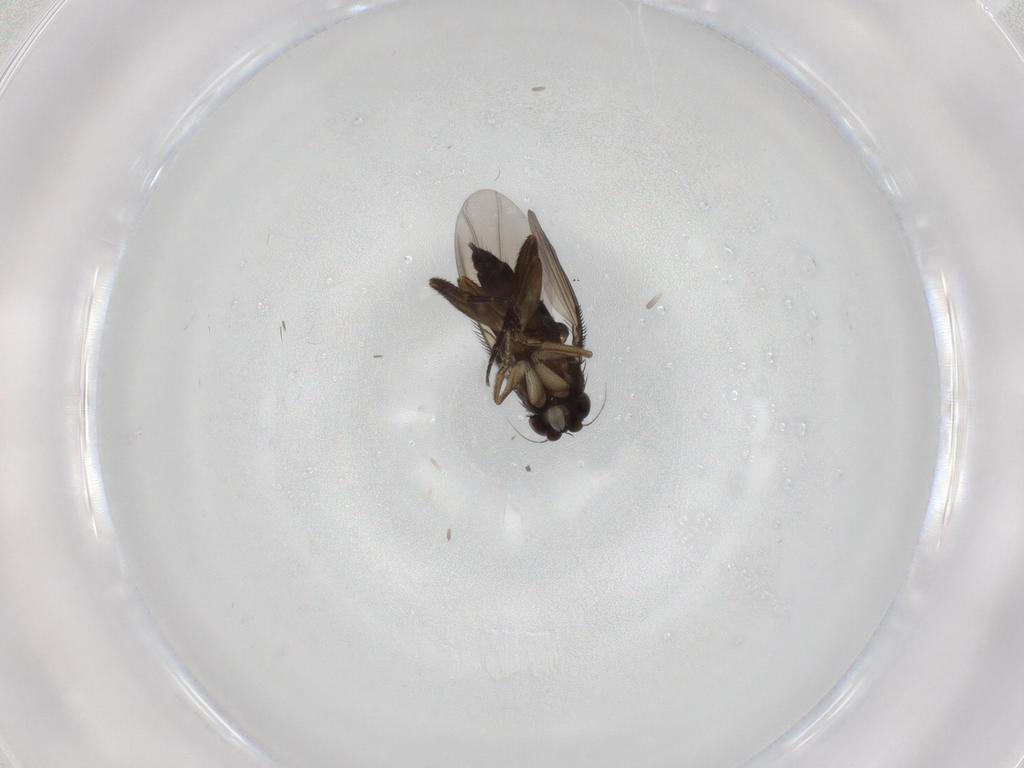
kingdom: Animalia
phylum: Arthropoda
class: Insecta
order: Diptera
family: Phoridae
